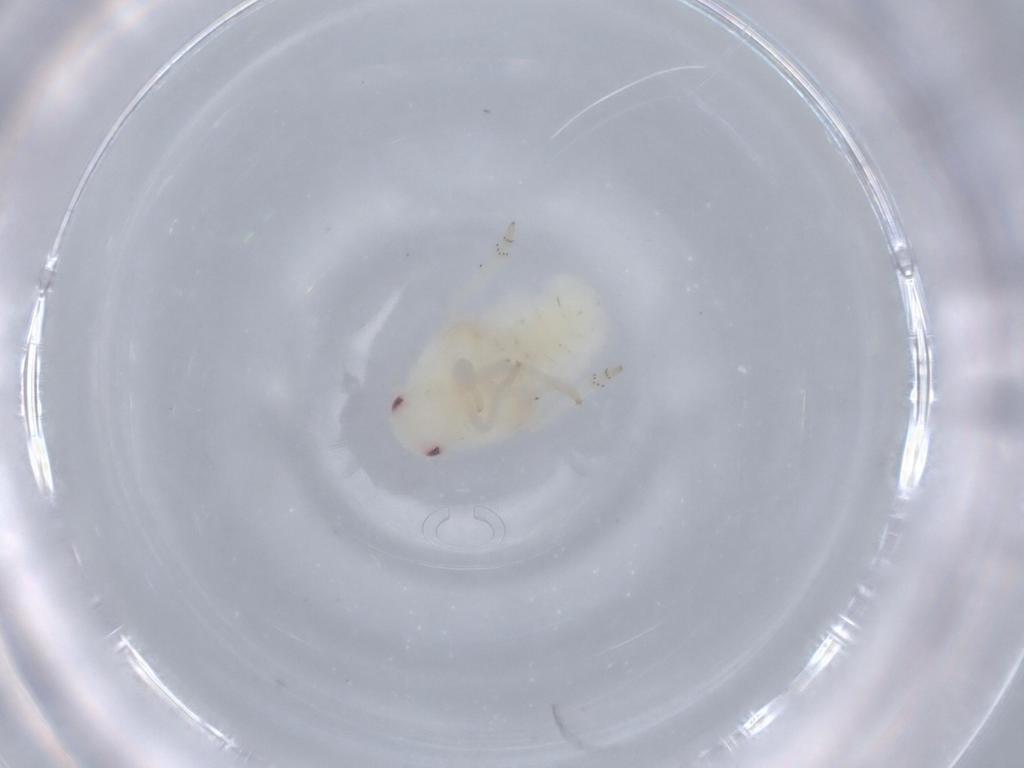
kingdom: Animalia
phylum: Arthropoda
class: Insecta
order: Hemiptera
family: Flatidae
